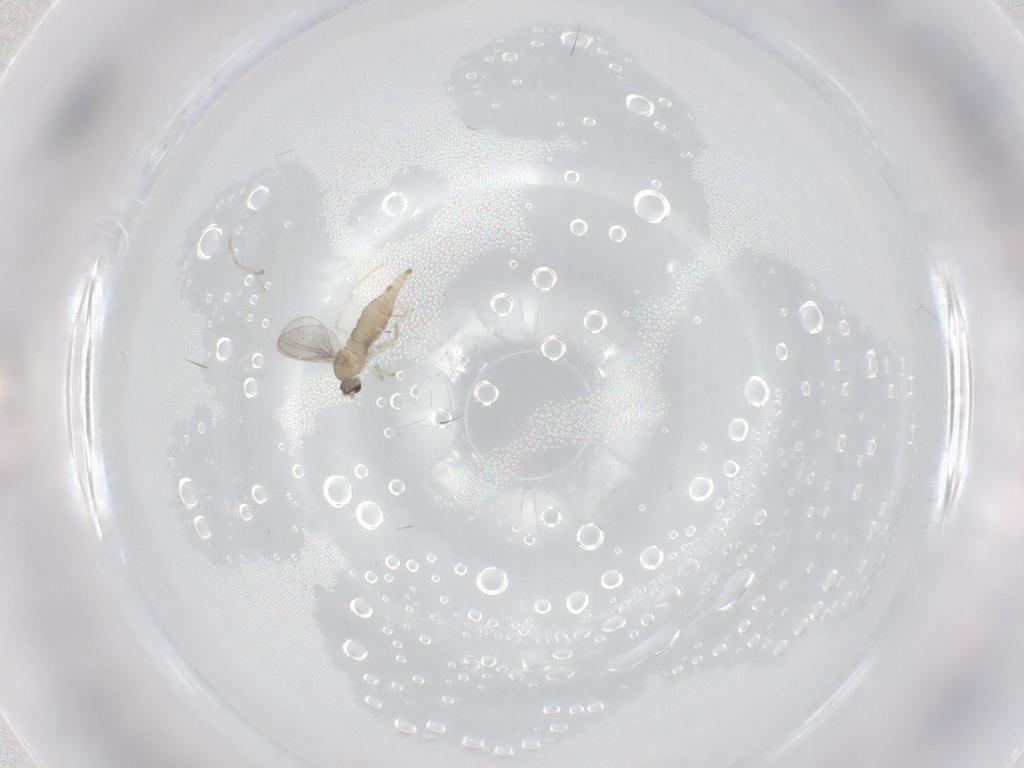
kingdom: Animalia
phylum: Arthropoda
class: Insecta
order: Diptera
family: Cecidomyiidae
